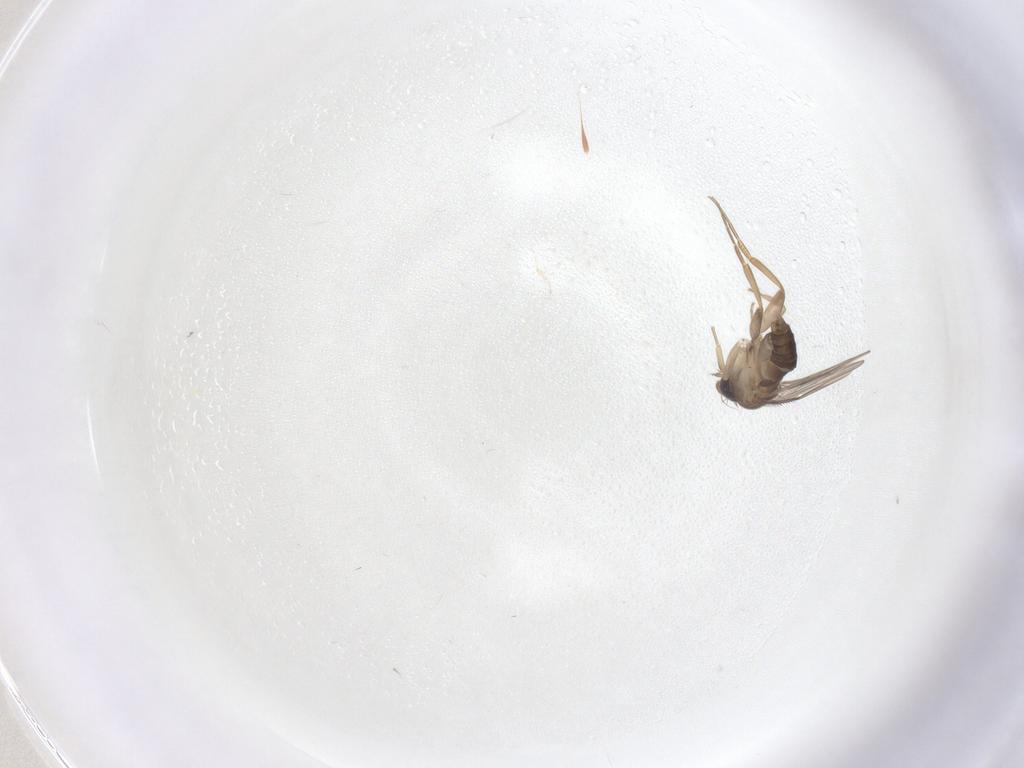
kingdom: Animalia
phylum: Arthropoda
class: Insecta
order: Diptera
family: Phoridae
